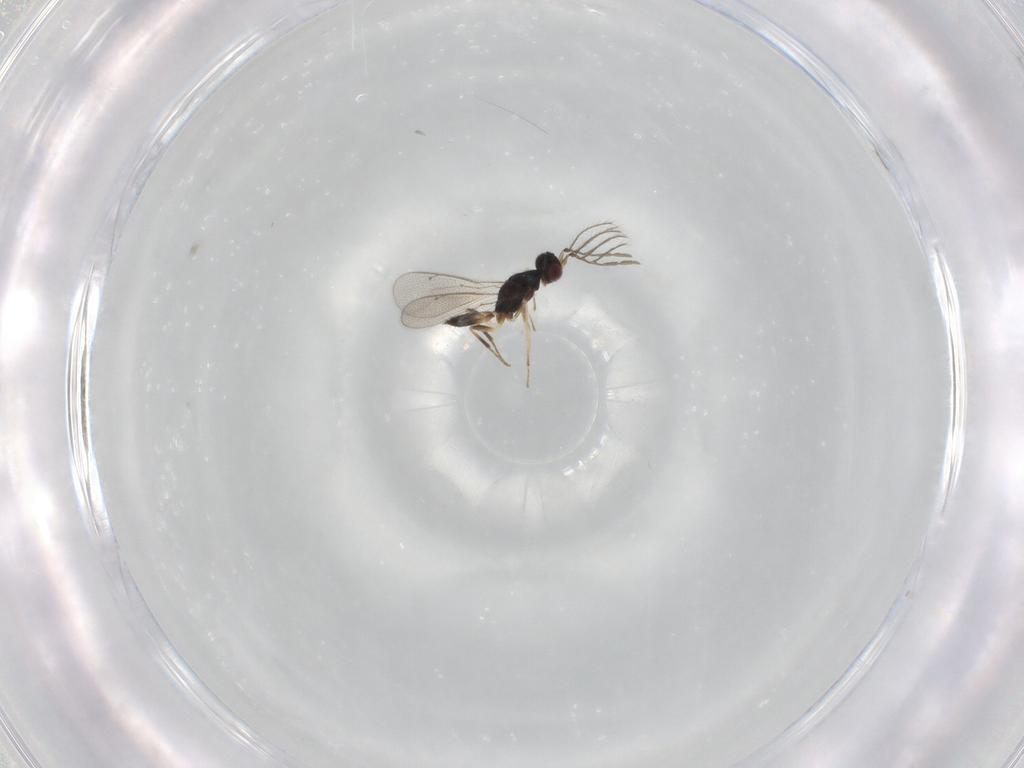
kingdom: Animalia
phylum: Arthropoda
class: Insecta
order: Hymenoptera
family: Eulophidae
